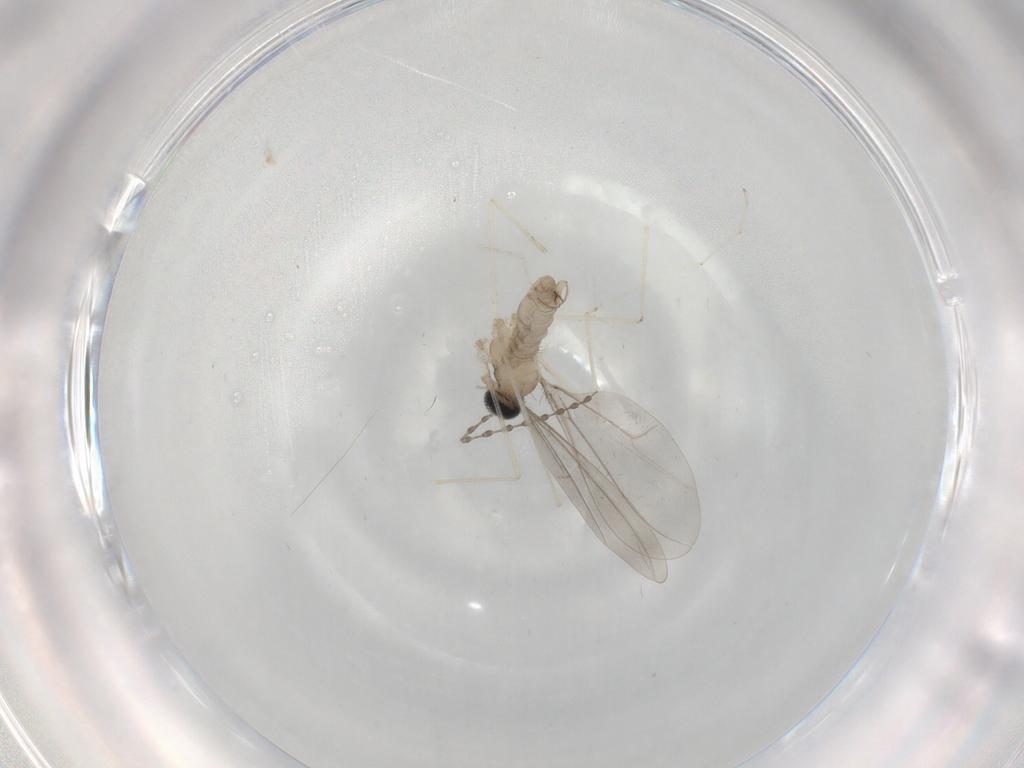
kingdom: Animalia
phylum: Arthropoda
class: Insecta
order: Diptera
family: Cecidomyiidae
